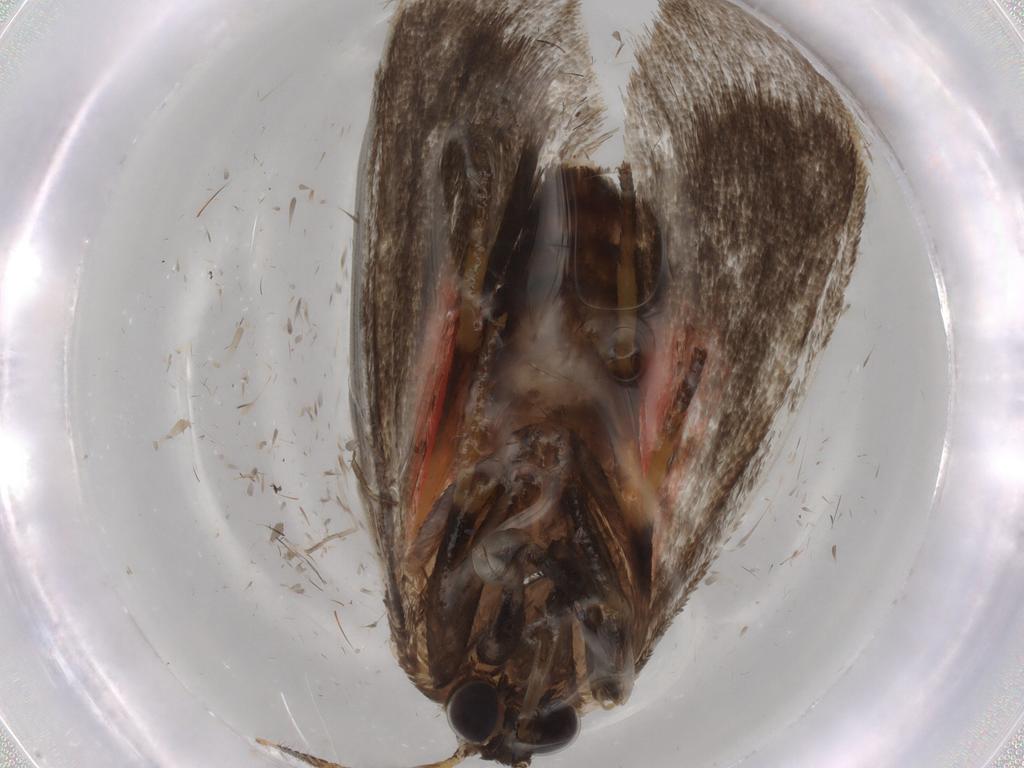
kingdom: Animalia
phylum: Arthropoda
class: Insecta
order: Lepidoptera
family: Erebidae
